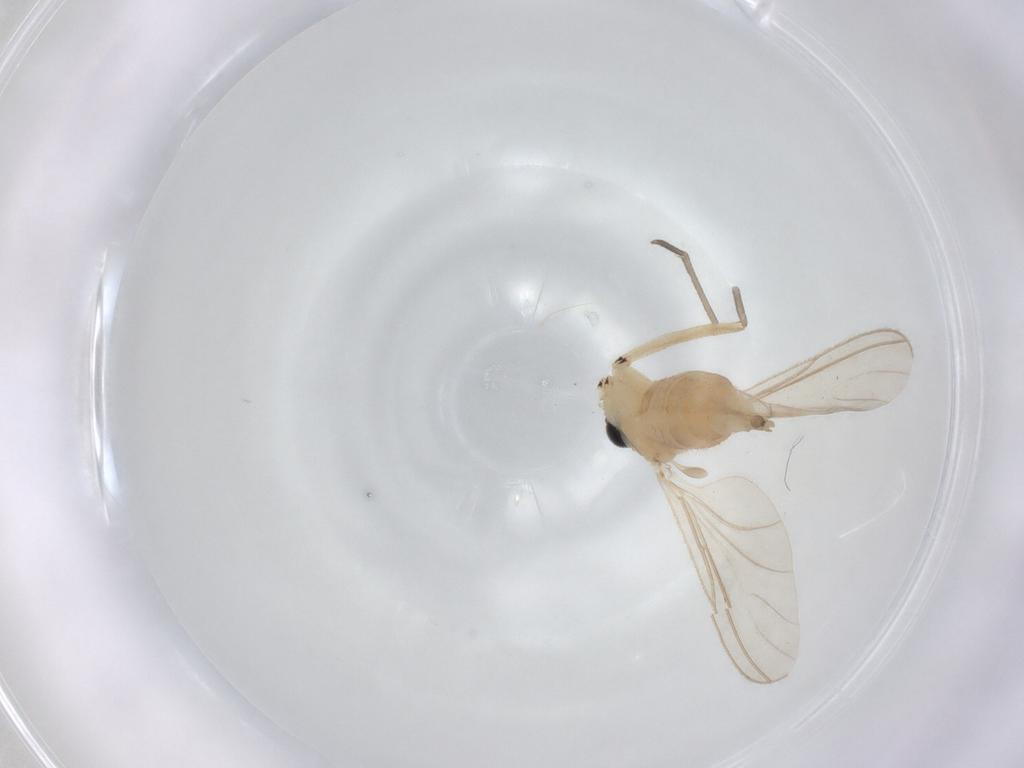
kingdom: Animalia
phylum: Arthropoda
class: Insecta
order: Diptera
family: Sciaridae
